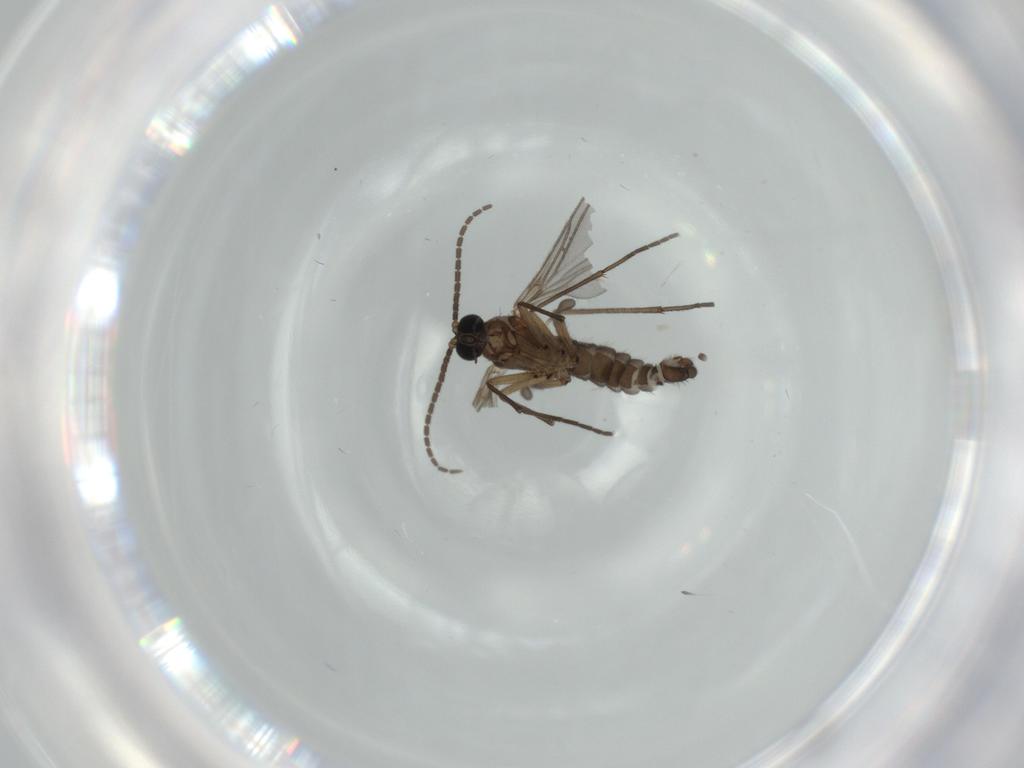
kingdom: Animalia
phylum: Arthropoda
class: Insecta
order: Diptera
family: Sciaridae
